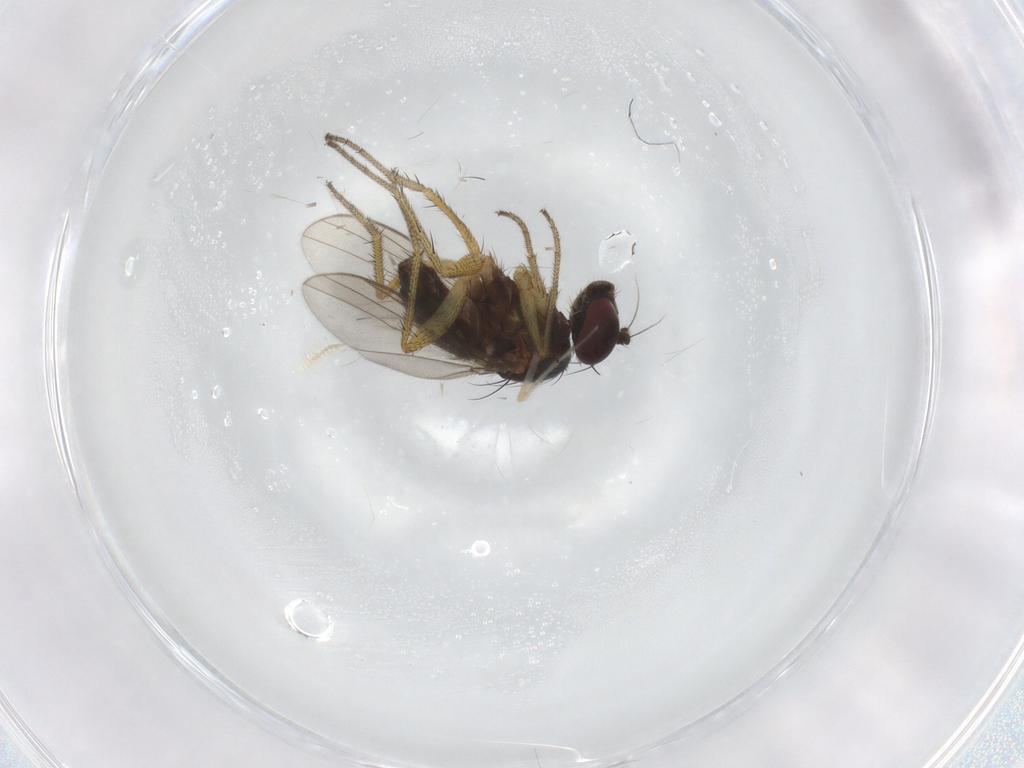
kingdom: Animalia
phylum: Arthropoda
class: Insecta
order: Diptera
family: Chironomidae
